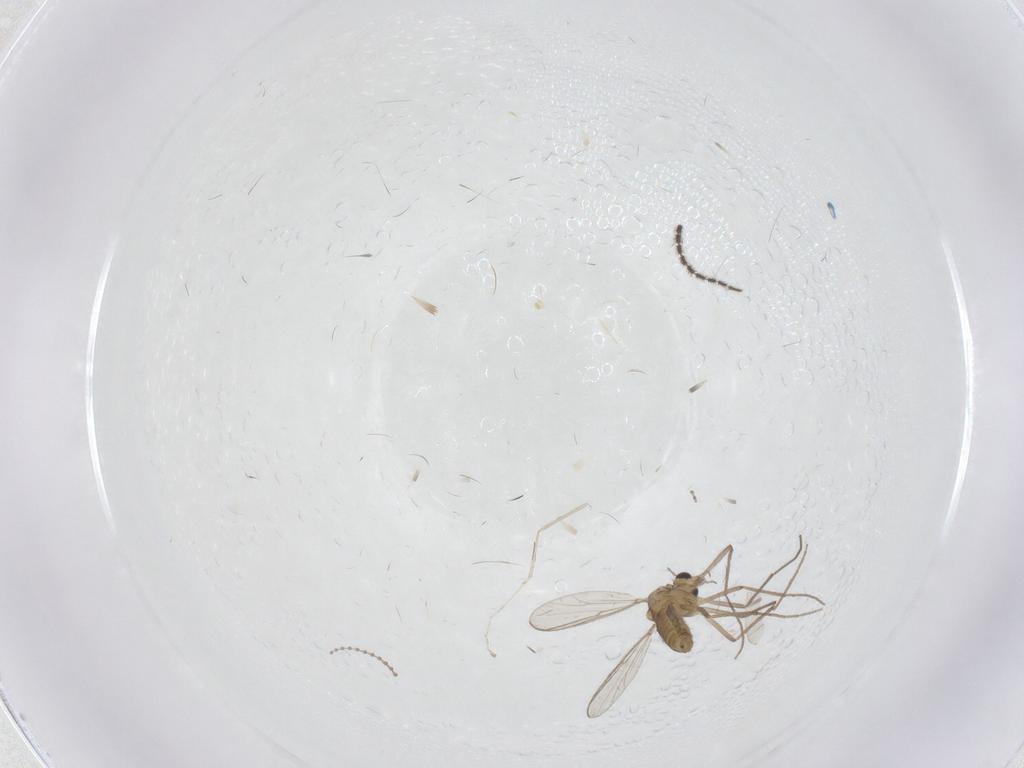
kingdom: Animalia
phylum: Arthropoda
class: Insecta
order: Diptera
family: Chironomidae
